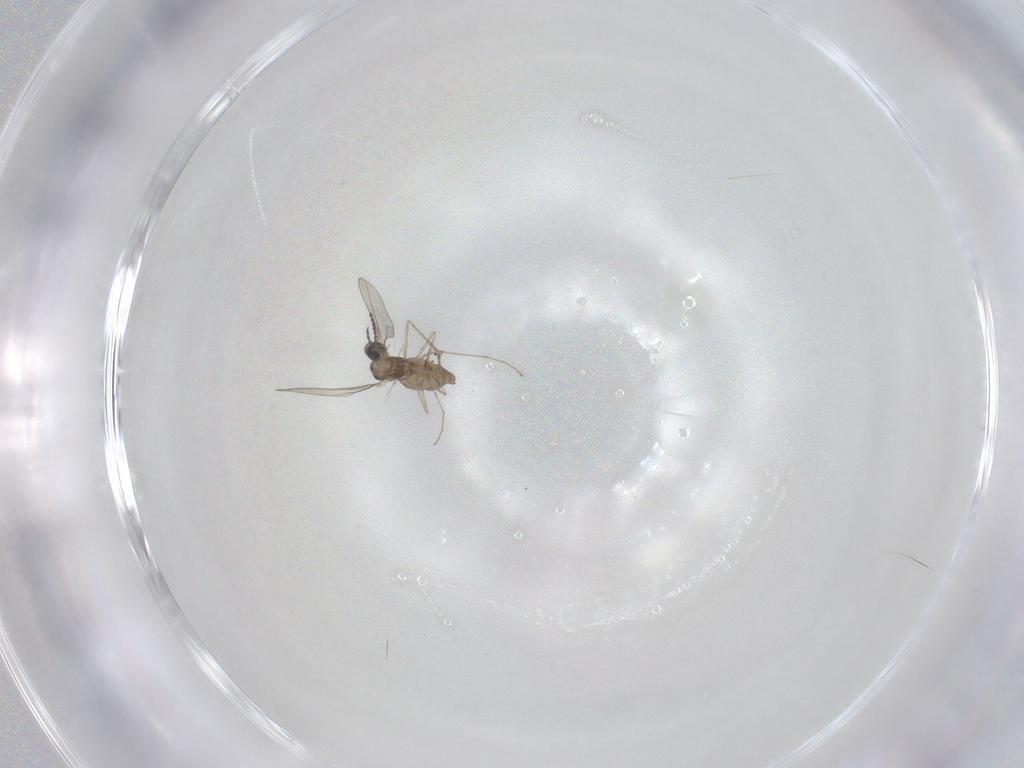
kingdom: Animalia
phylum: Arthropoda
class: Insecta
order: Diptera
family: Cecidomyiidae
